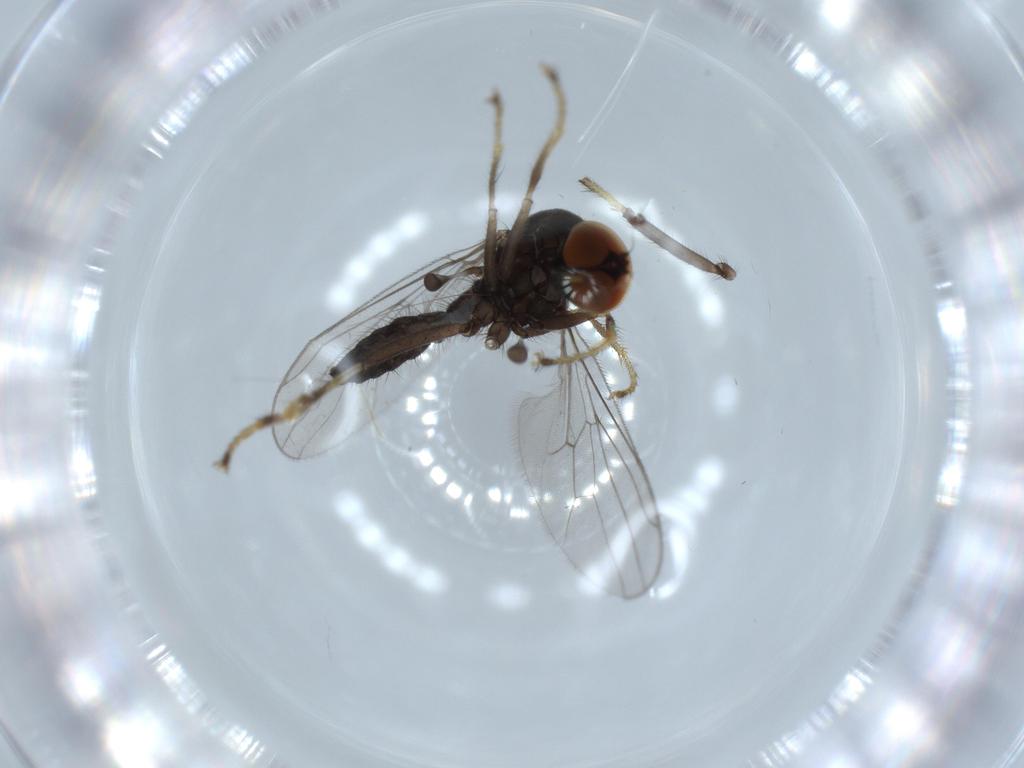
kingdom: Animalia
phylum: Arthropoda
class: Insecta
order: Diptera
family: Hybotidae
